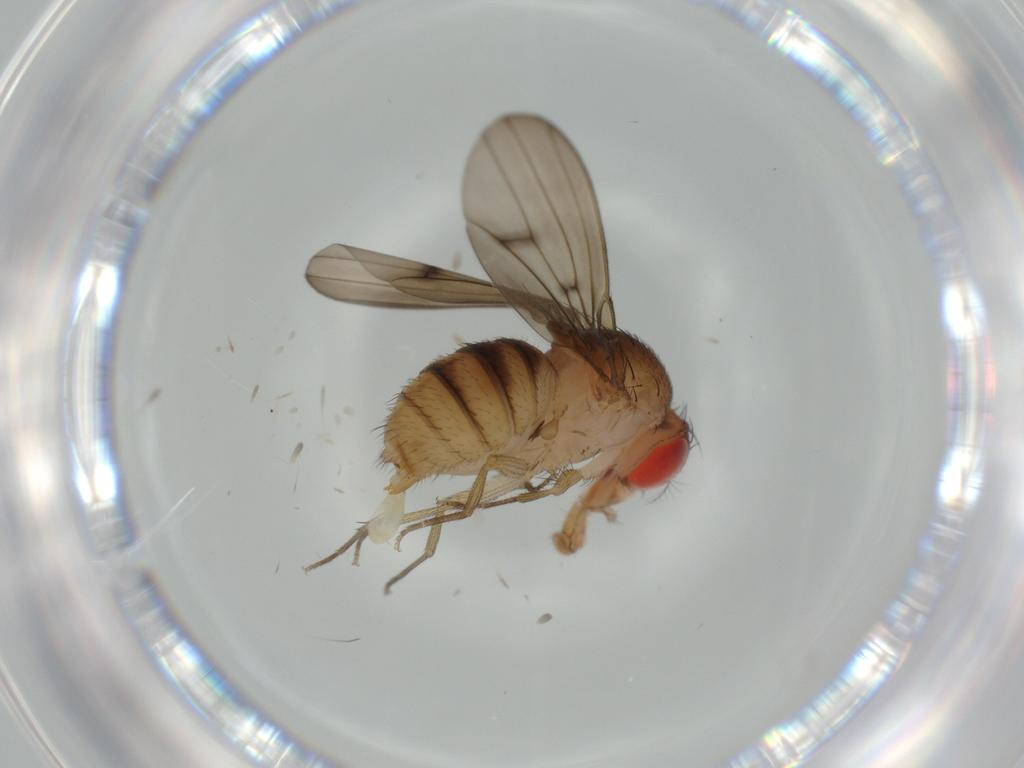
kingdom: Animalia
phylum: Arthropoda
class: Insecta
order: Diptera
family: Drosophilidae
